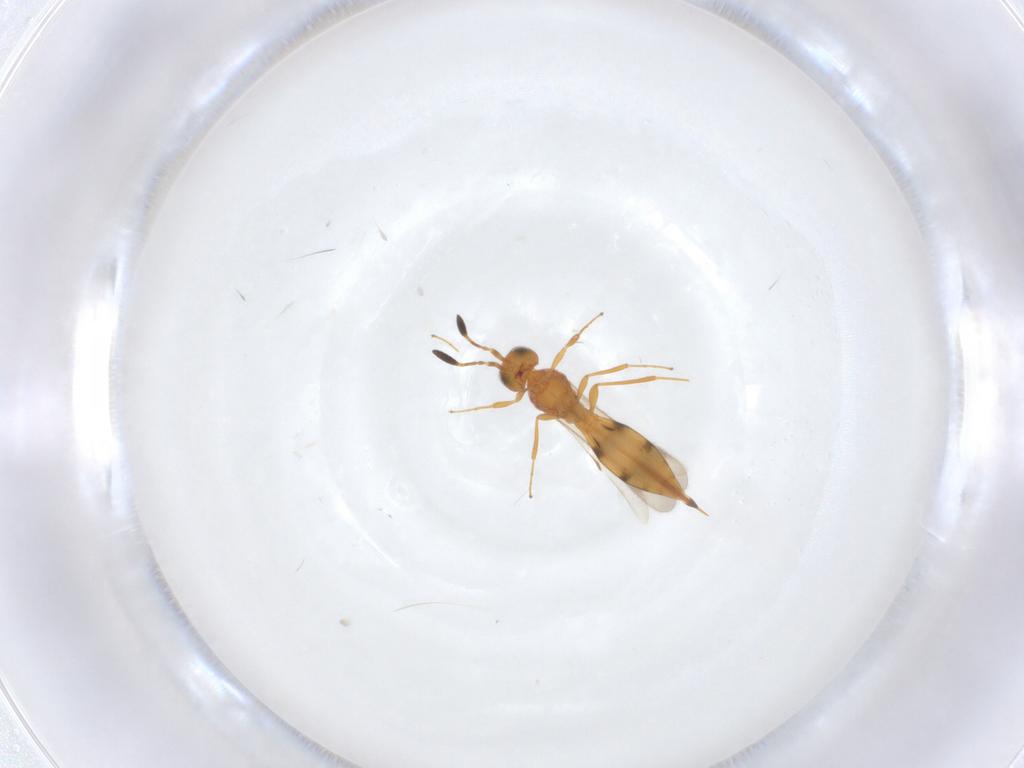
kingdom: Animalia
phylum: Arthropoda
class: Insecta
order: Hymenoptera
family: Scelionidae
